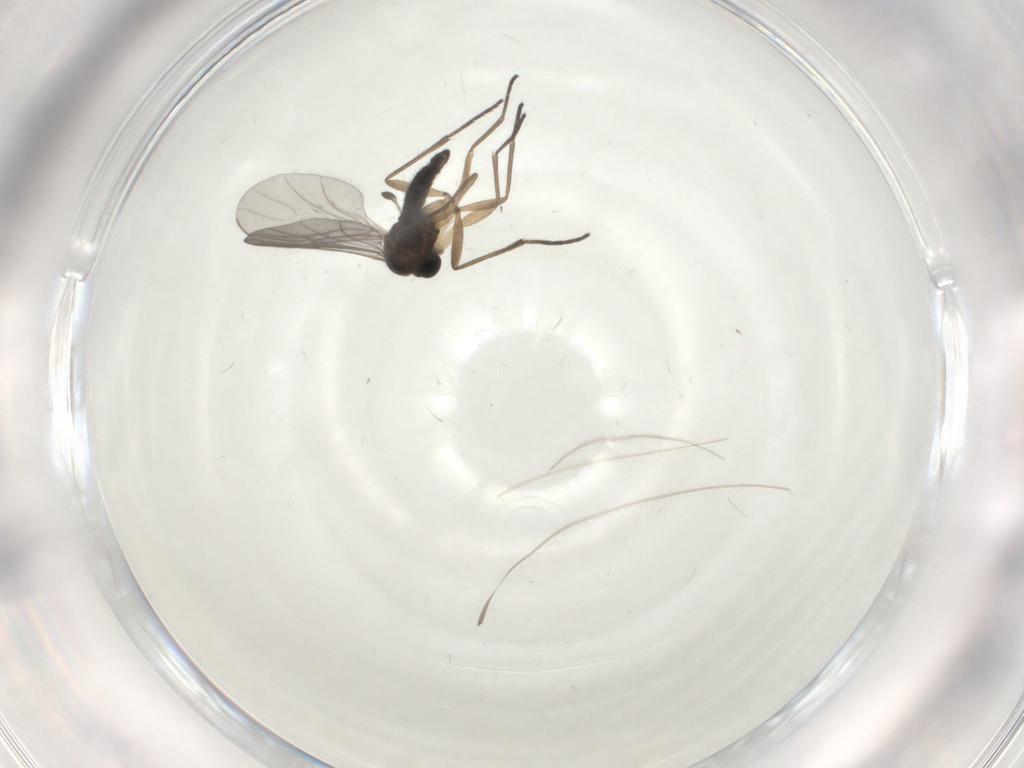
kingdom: Animalia
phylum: Arthropoda
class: Insecta
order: Diptera
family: Sciaridae
